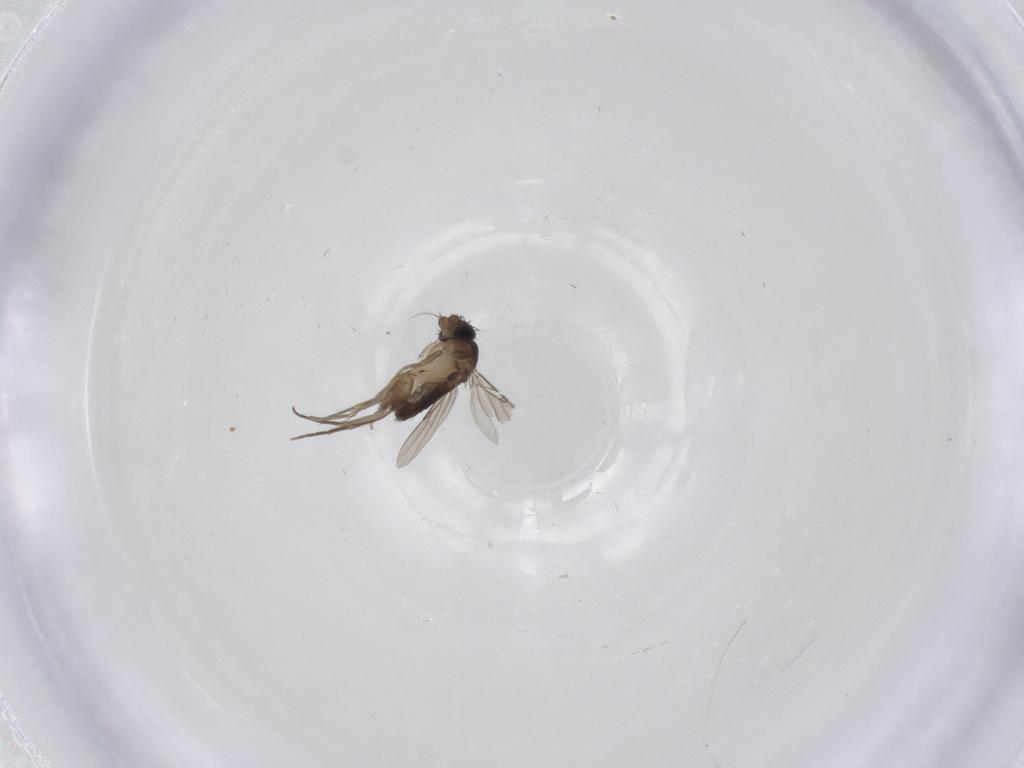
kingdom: Animalia
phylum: Arthropoda
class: Insecta
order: Diptera
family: Phoridae
